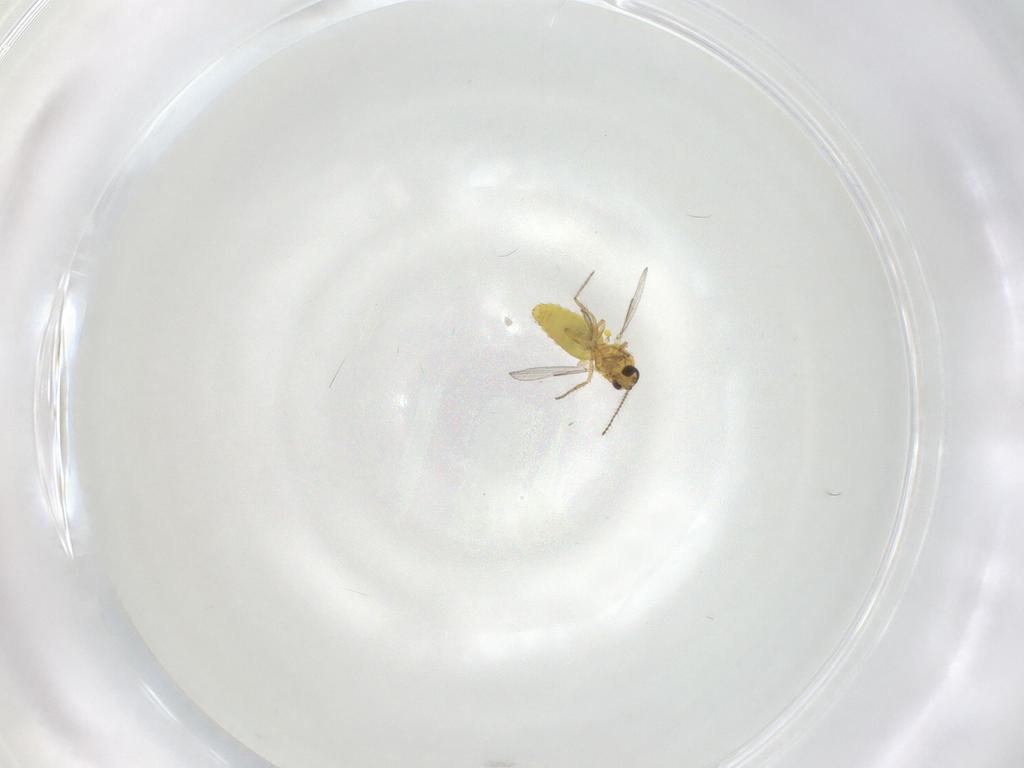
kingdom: Animalia
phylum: Arthropoda
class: Insecta
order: Diptera
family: Ceratopogonidae
